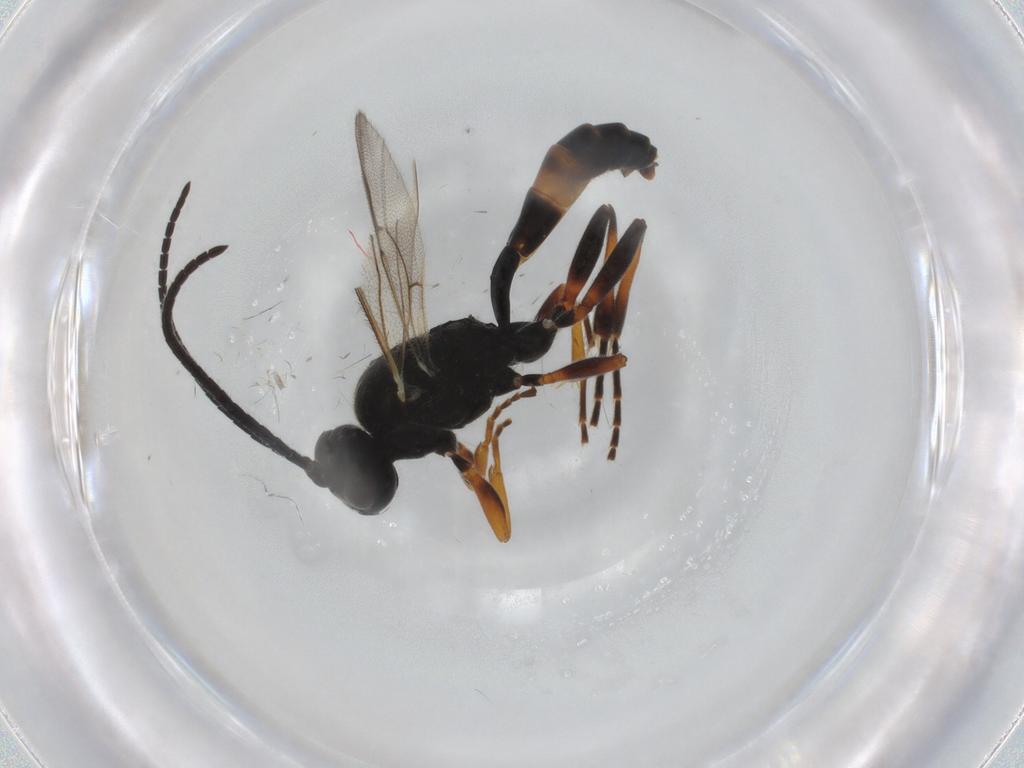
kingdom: Animalia
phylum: Arthropoda
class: Insecta
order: Hymenoptera
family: Ichneumonidae
